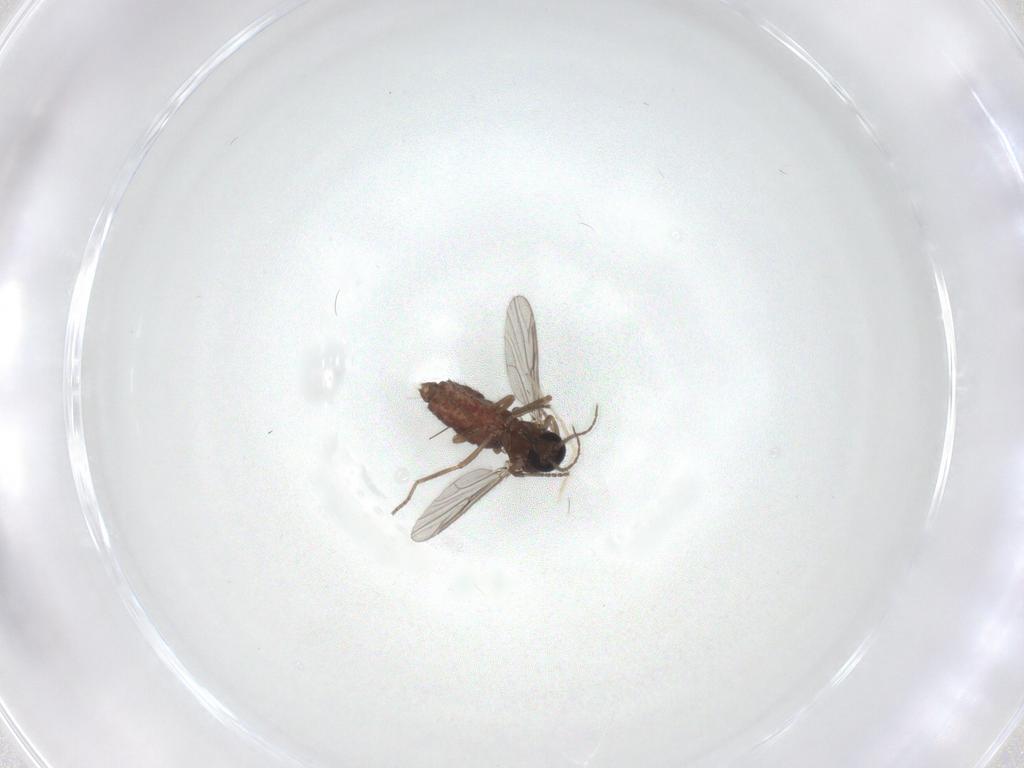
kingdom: Animalia
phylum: Arthropoda
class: Insecta
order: Diptera
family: Ceratopogonidae
